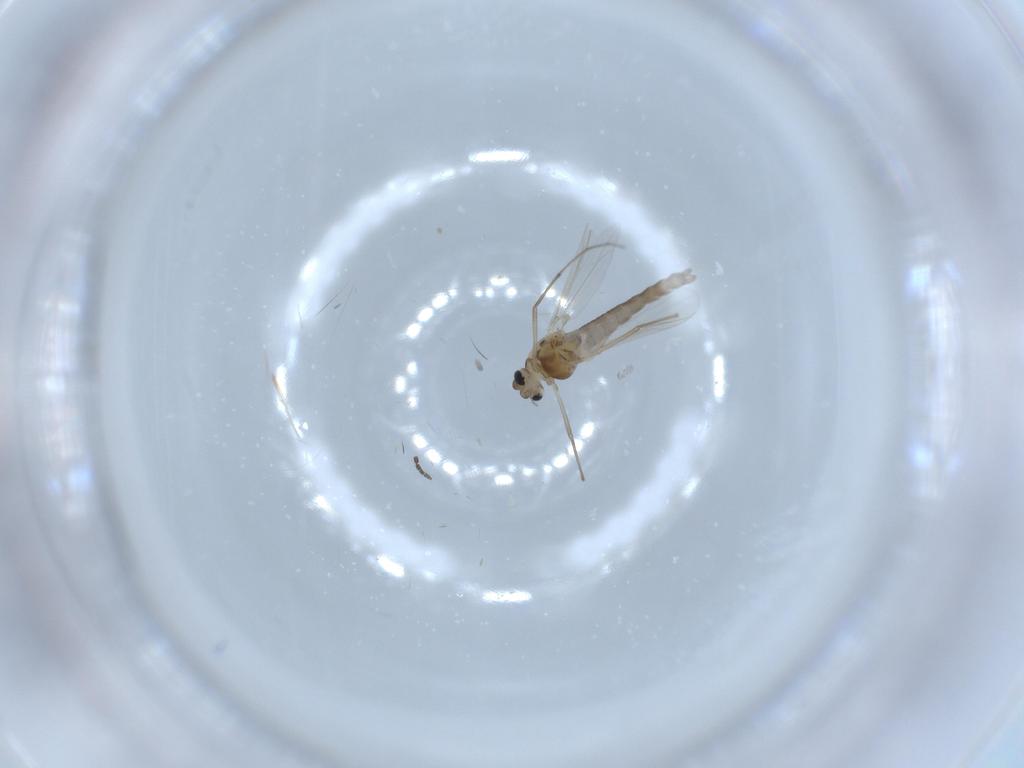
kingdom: Animalia
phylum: Arthropoda
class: Insecta
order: Diptera
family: Chironomidae
